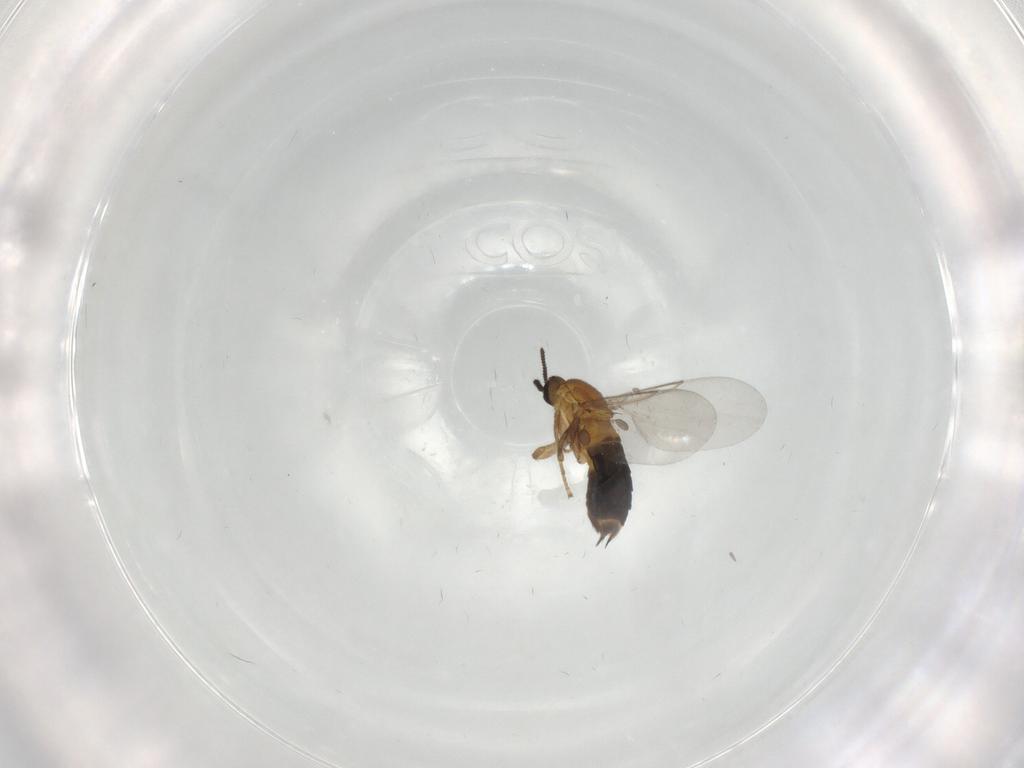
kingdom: Animalia
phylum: Arthropoda
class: Insecta
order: Diptera
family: Scatopsidae
